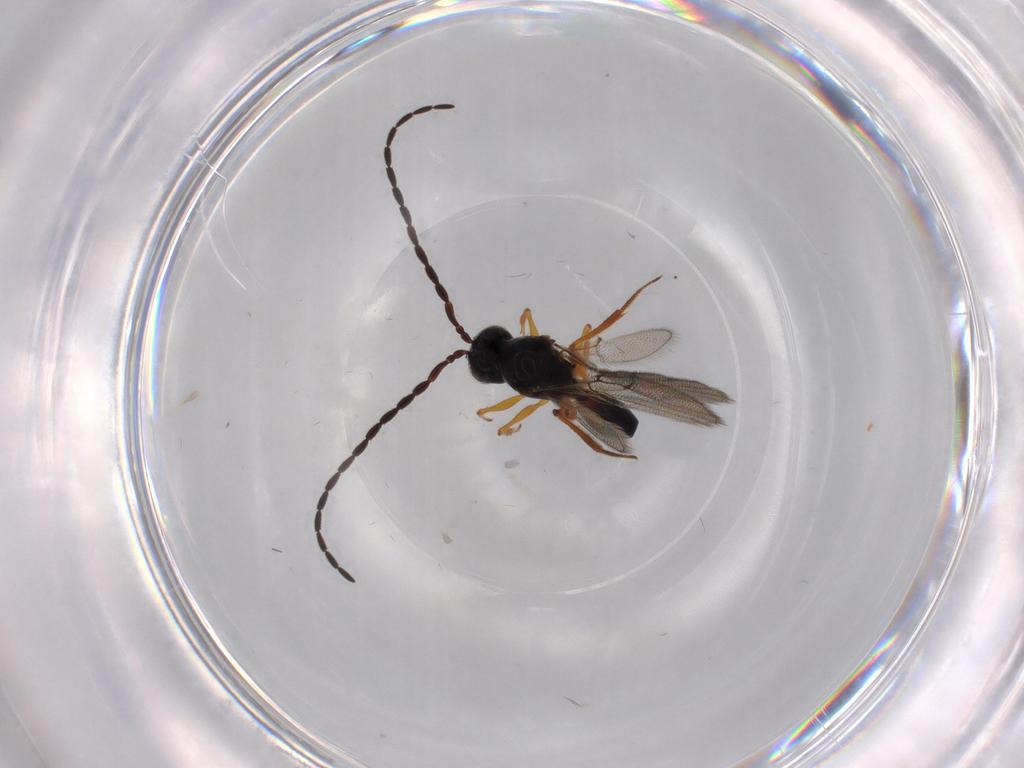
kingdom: Animalia
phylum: Arthropoda
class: Insecta
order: Hymenoptera
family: Figitidae
